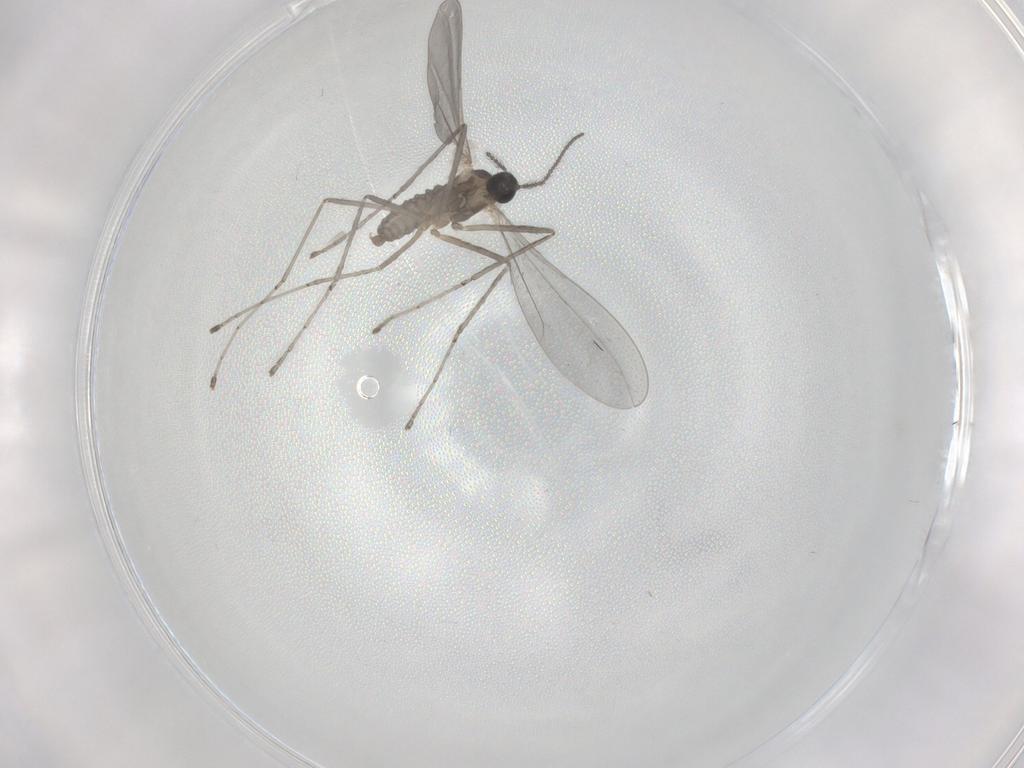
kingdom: Animalia
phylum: Arthropoda
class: Insecta
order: Diptera
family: Cecidomyiidae
